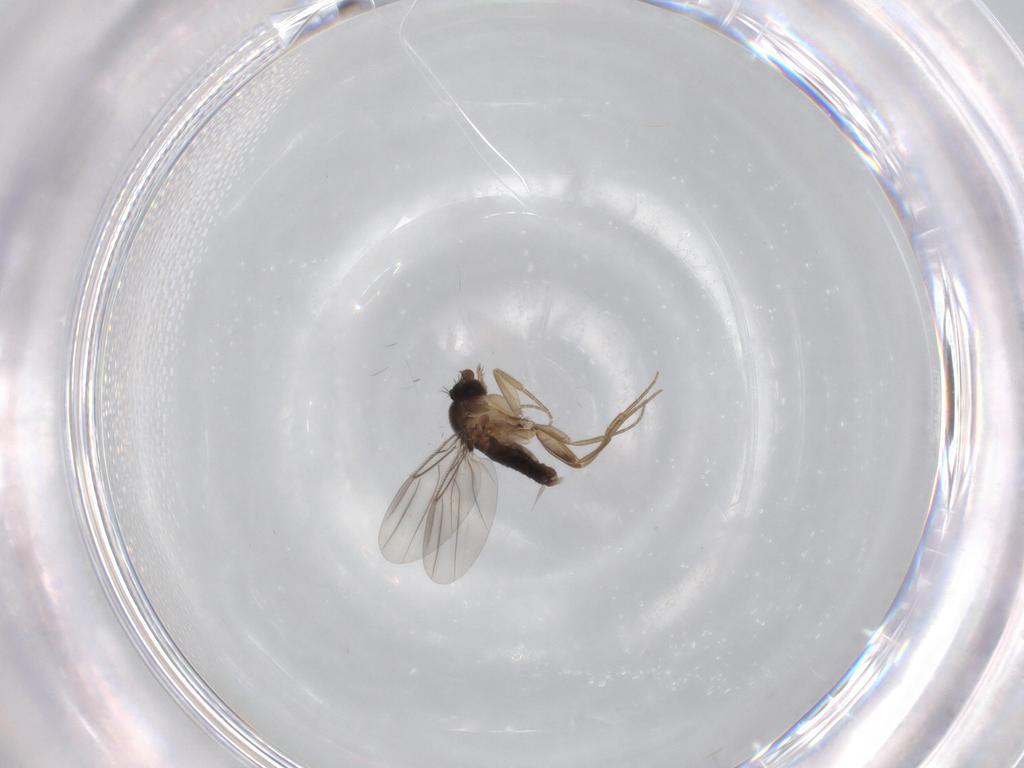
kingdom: Animalia
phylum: Arthropoda
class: Insecta
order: Diptera
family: Phoridae
